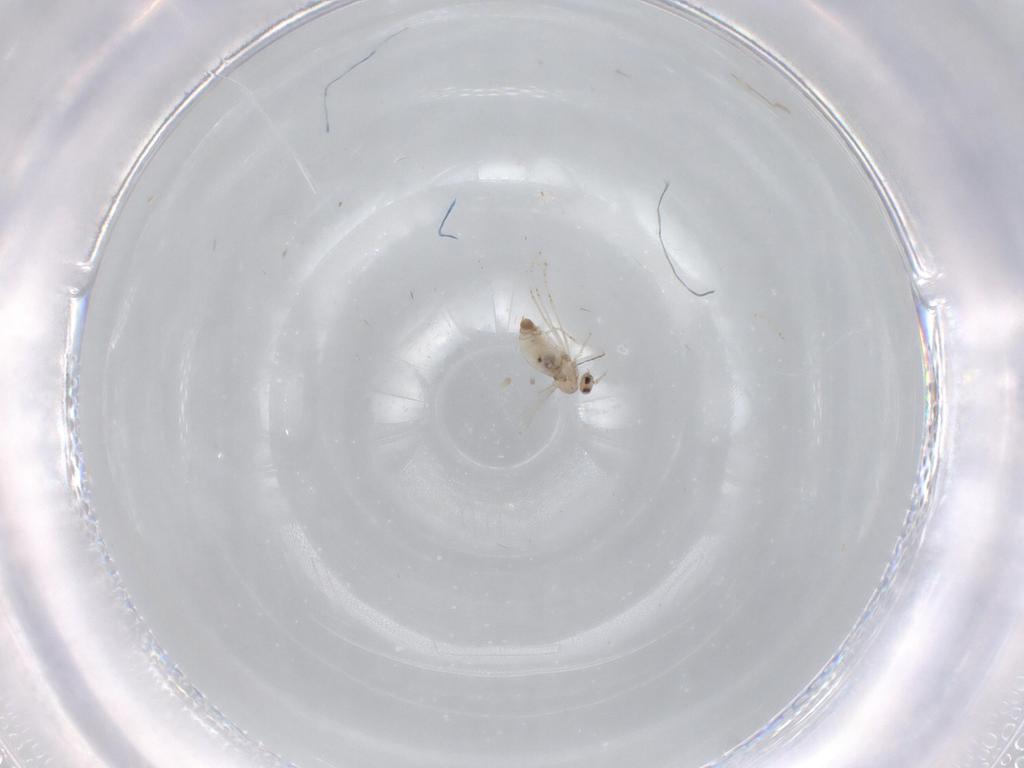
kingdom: Animalia
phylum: Arthropoda
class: Insecta
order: Diptera
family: Cecidomyiidae
